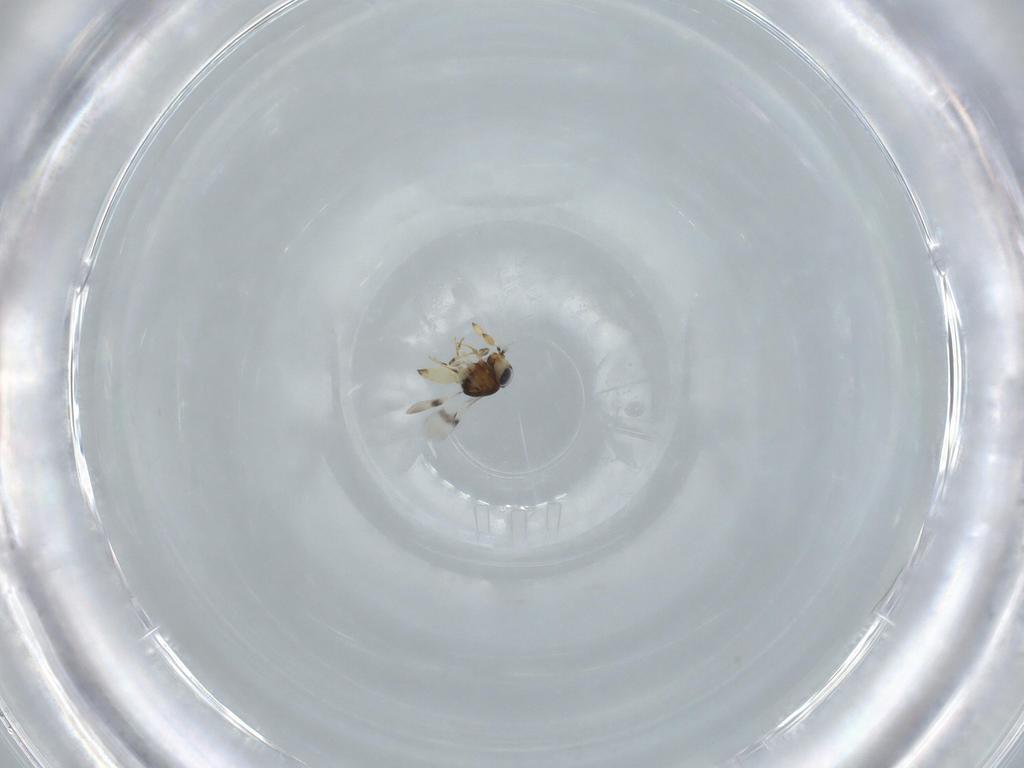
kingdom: Animalia
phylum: Arthropoda
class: Insecta
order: Hymenoptera
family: Scelionidae
